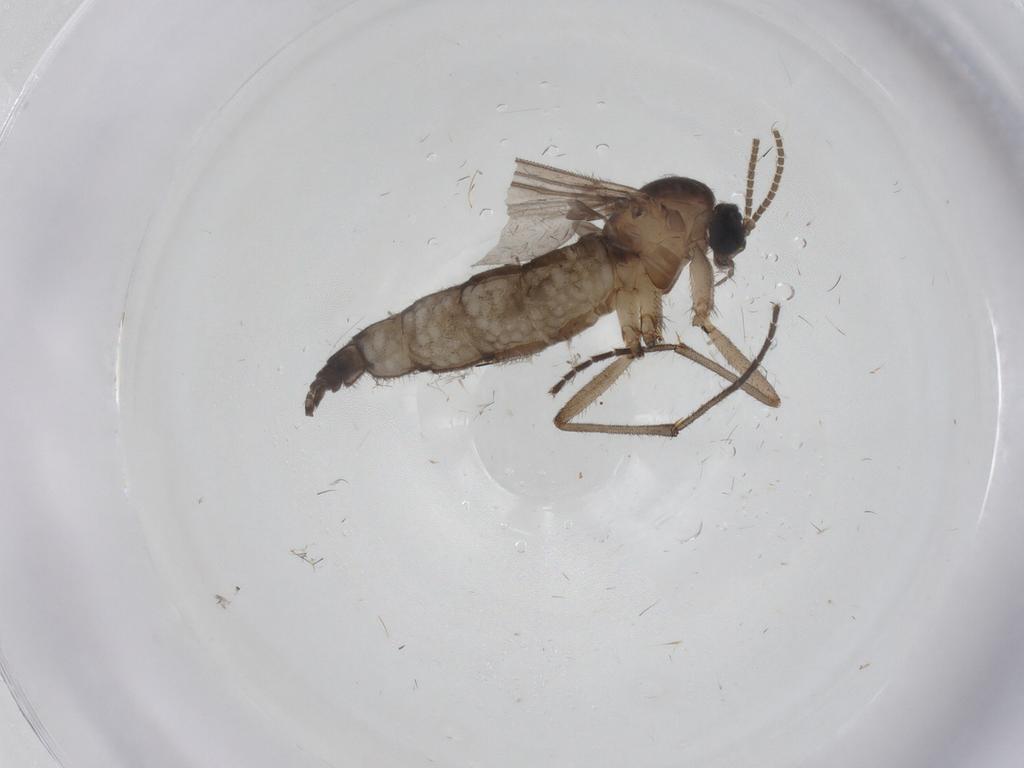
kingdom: Animalia
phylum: Arthropoda
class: Insecta
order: Diptera
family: Dolichopodidae
